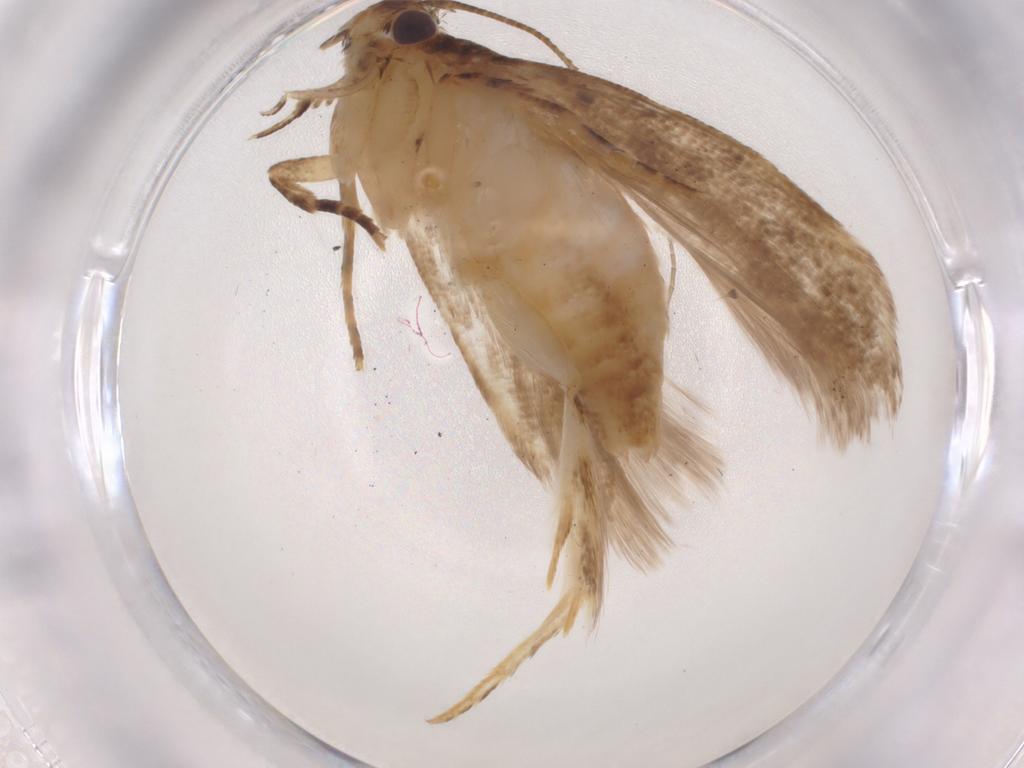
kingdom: Animalia
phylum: Arthropoda
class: Insecta
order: Lepidoptera
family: Gelechiidae
